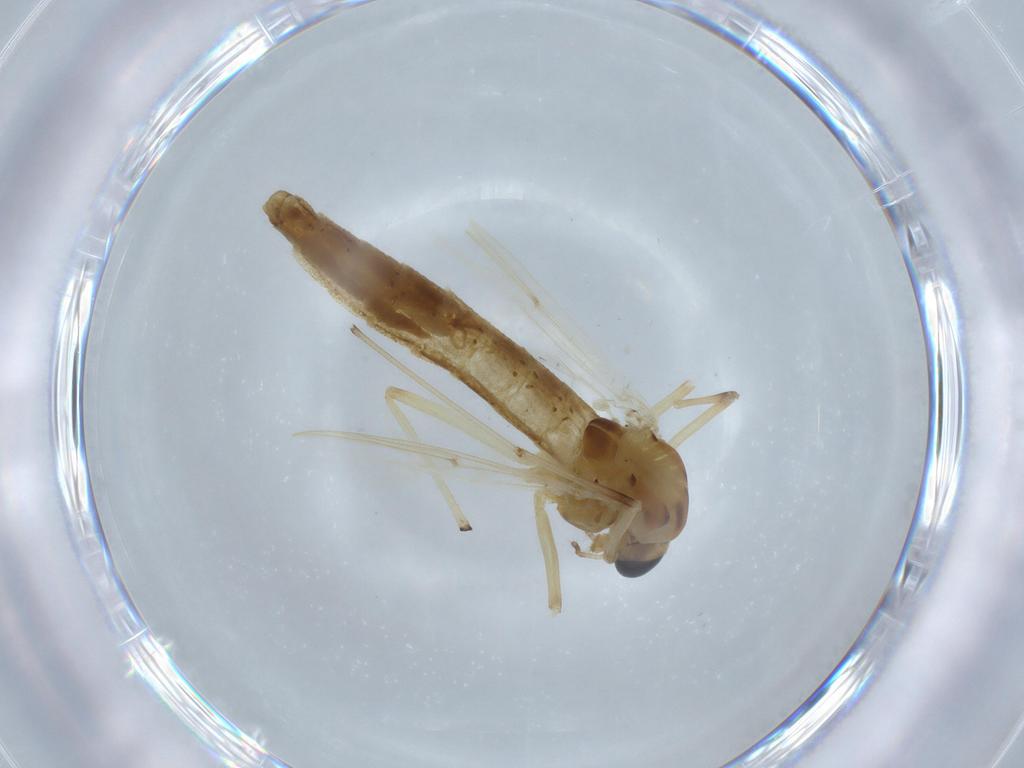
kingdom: Animalia
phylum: Arthropoda
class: Insecta
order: Diptera
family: Chironomidae
